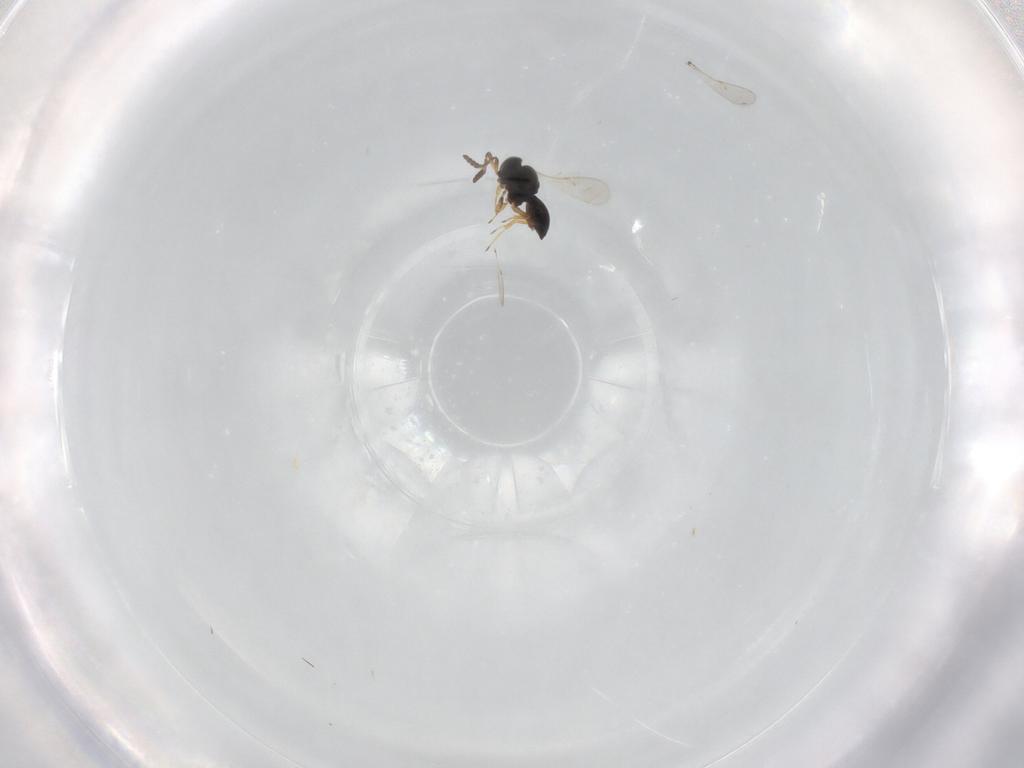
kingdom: Animalia
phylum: Arthropoda
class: Insecta
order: Hymenoptera
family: Scelionidae
